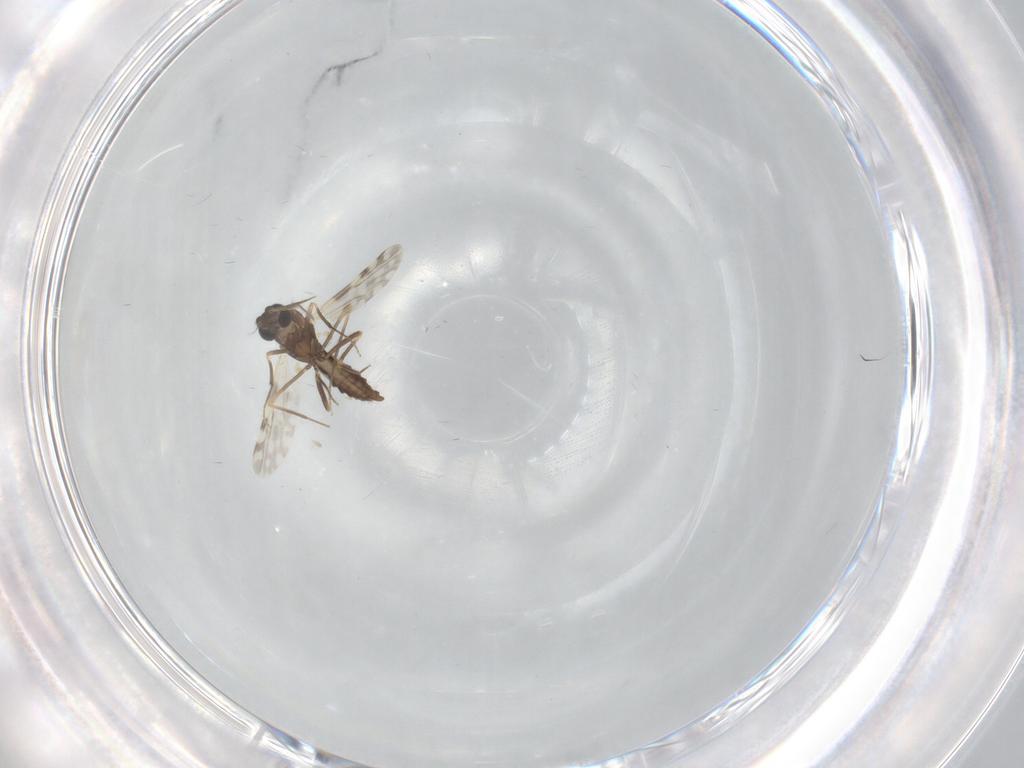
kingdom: Animalia
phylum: Arthropoda
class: Insecta
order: Diptera
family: Ceratopogonidae
